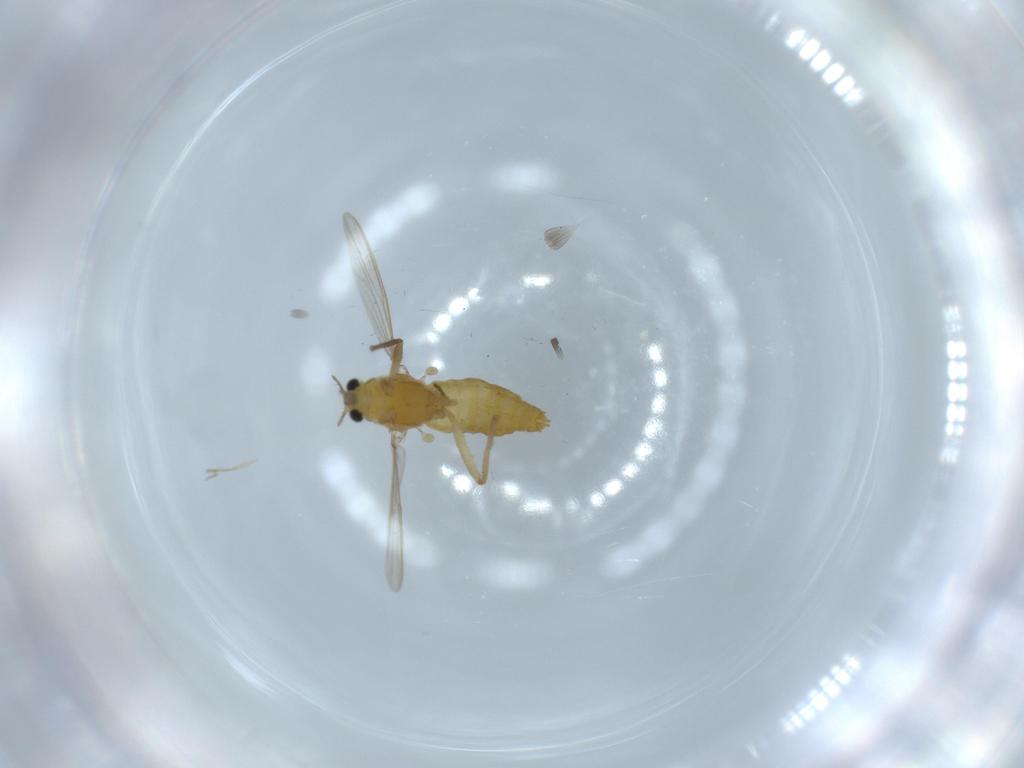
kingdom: Animalia
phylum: Arthropoda
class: Insecta
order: Diptera
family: Chironomidae
